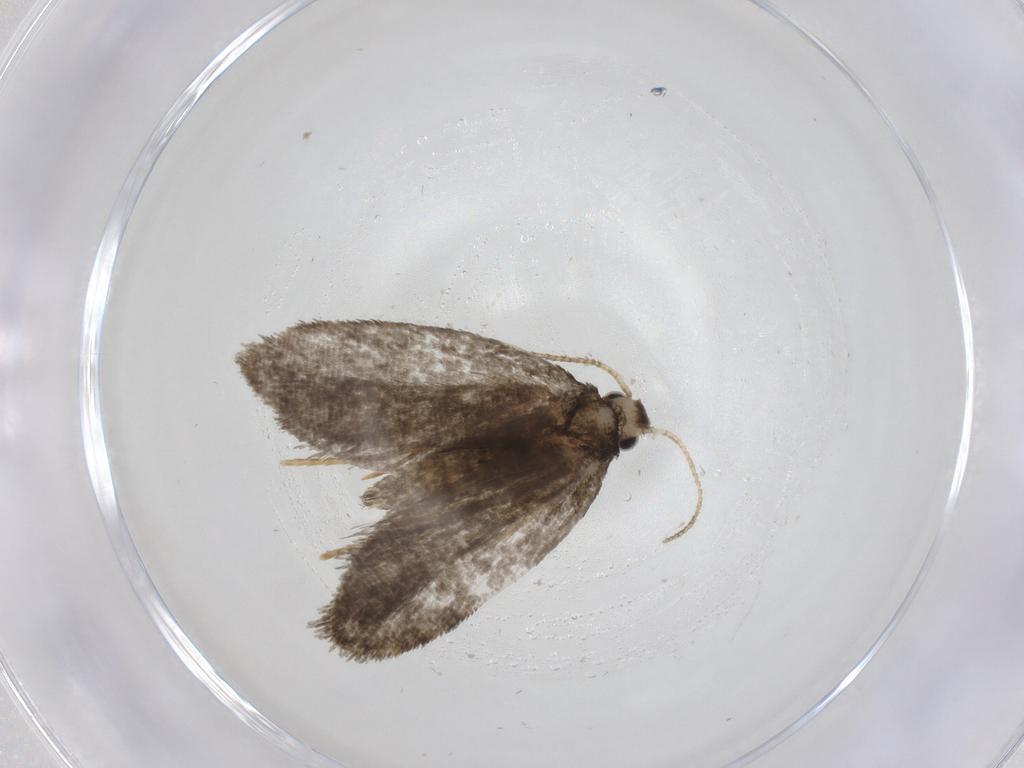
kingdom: Animalia
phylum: Arthropoda
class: Insecta
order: Lepidoptera
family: Psychidae
